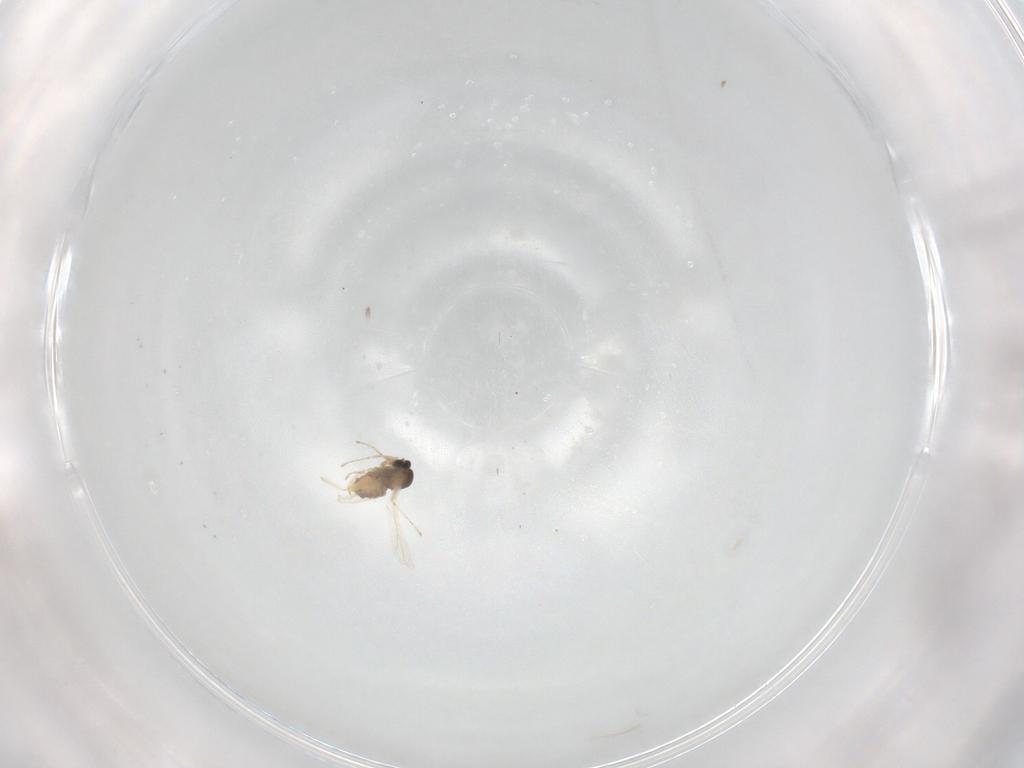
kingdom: Animalia
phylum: Arthropoda
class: Insecta
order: Diptera
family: Cecidomyiidae
